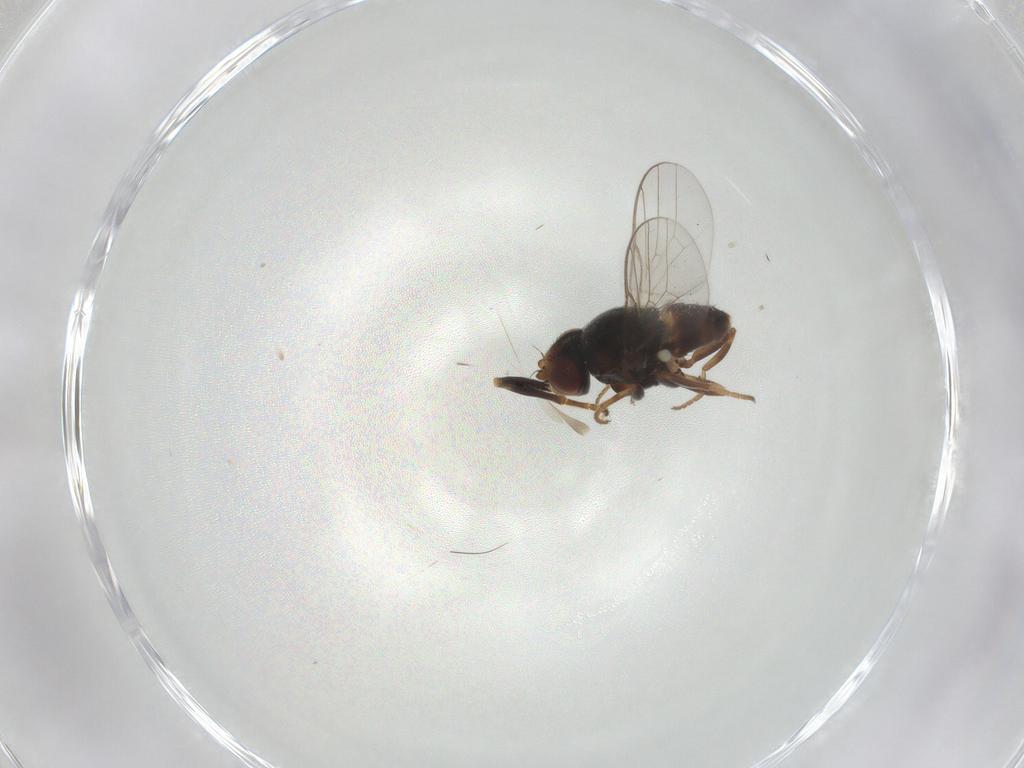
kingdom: Animalia
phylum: Arthropoda
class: Insecta
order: Diptera
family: Chloropidae
